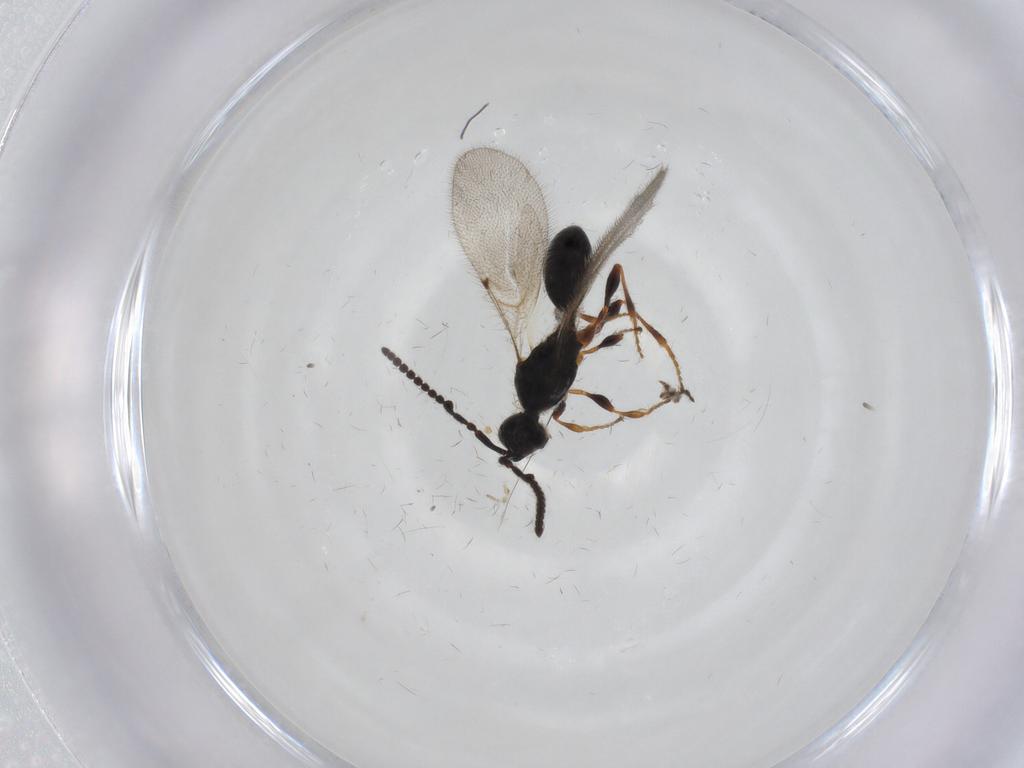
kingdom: Animalia
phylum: Arthropoda
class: Insecta
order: Hymenoptera
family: Diapriidae
